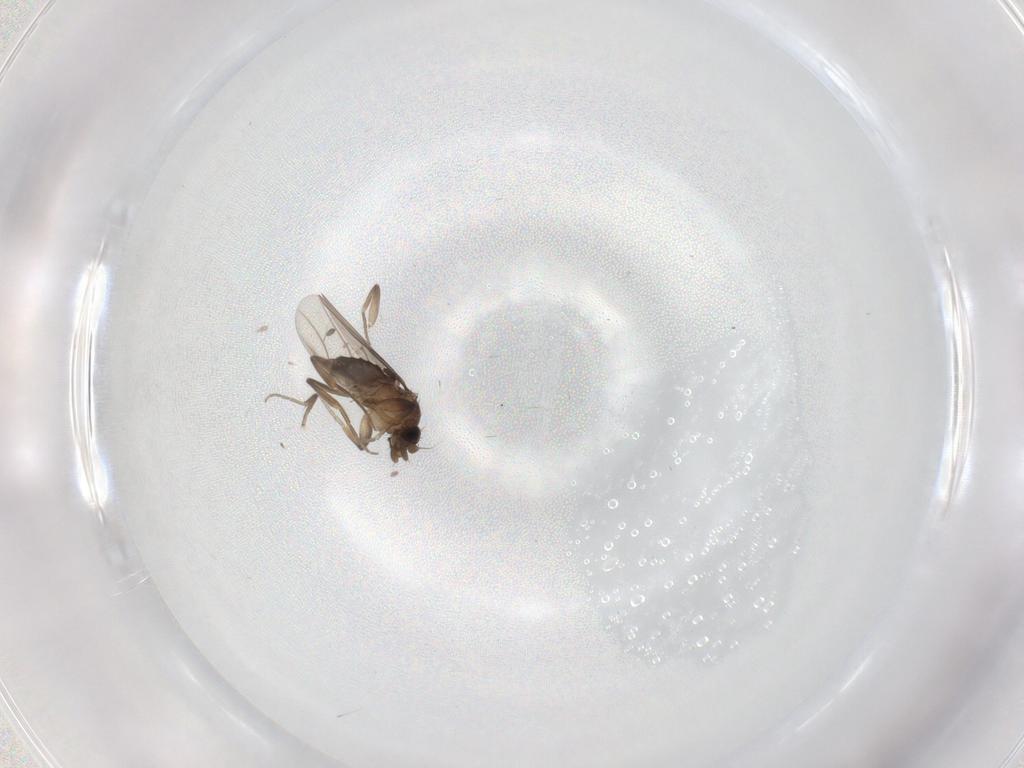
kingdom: Animalia
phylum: Arthropoda
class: Insecta
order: Diptera
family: Phoridae
